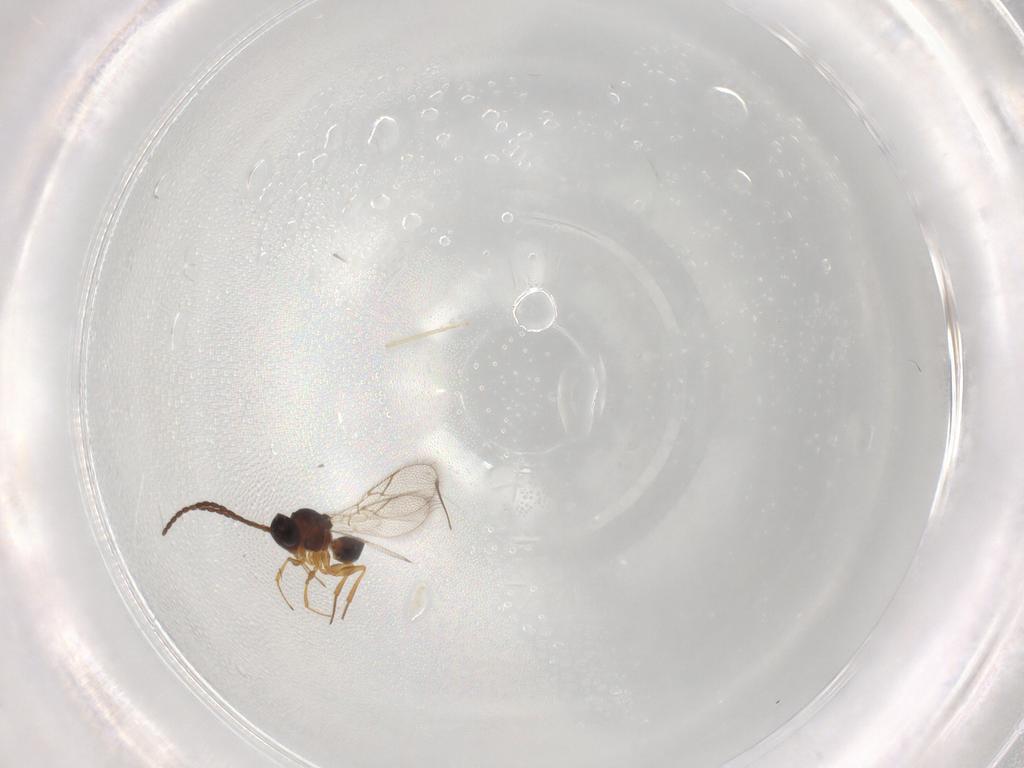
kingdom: Animalia
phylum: Arthropoda
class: Insecta
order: Hymenoptera
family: Figitidae
